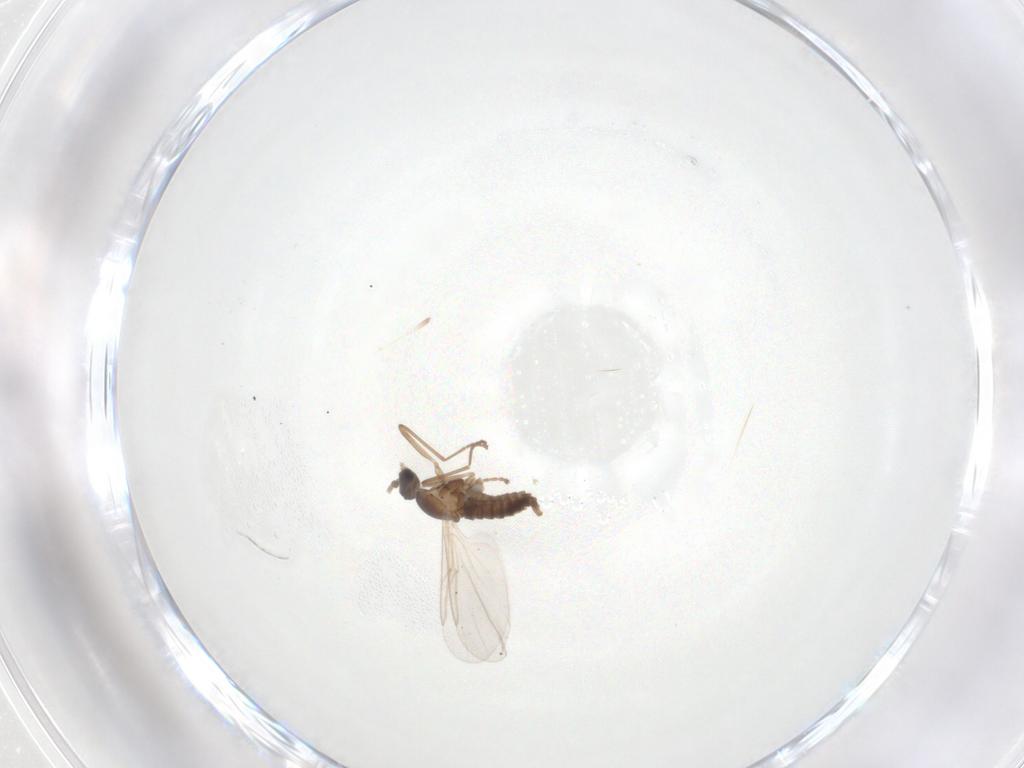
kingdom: Animalia
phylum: Arthropoda
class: Insecta
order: Diptera
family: Cecidomyiidae
